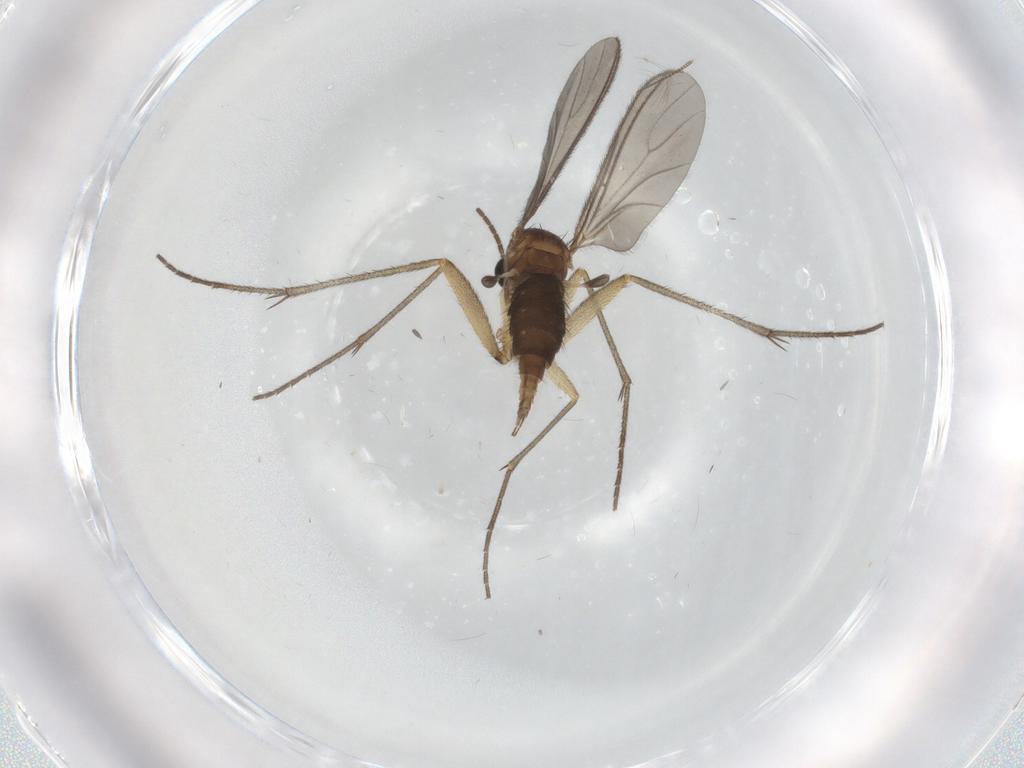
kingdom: Animalia
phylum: Arthropoda
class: Insecta
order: Diptera
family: Sciaridae
